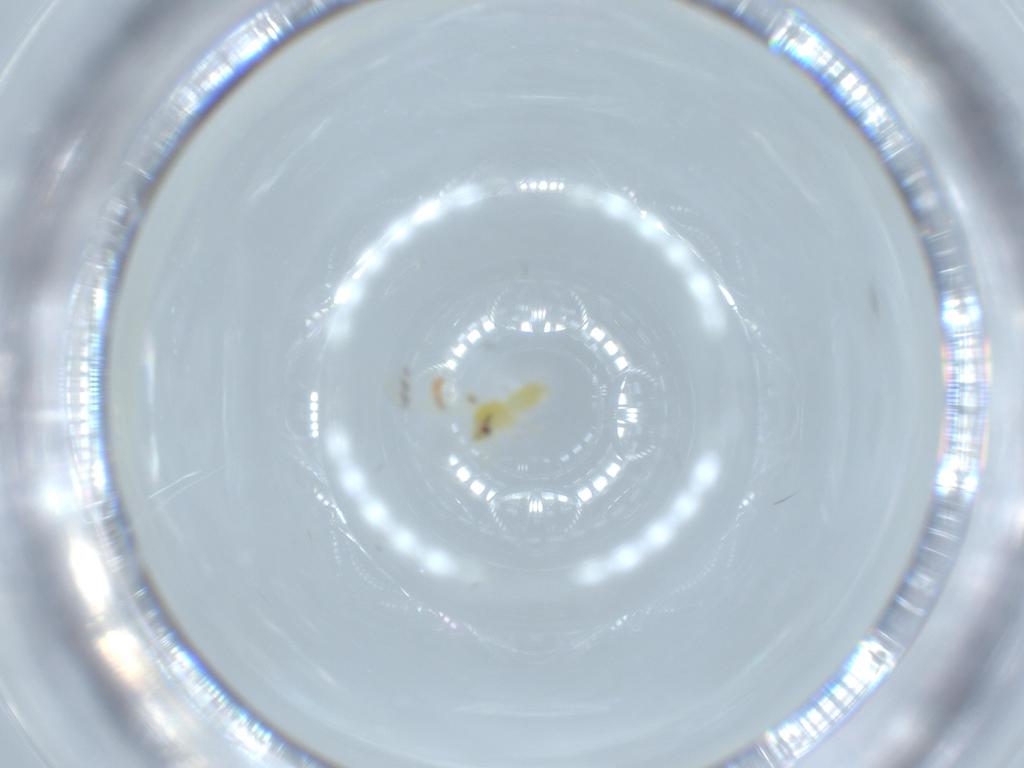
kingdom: Animalia
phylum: Arthropoda
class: Insecta
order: Hemiptera
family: Aleyrodidae
